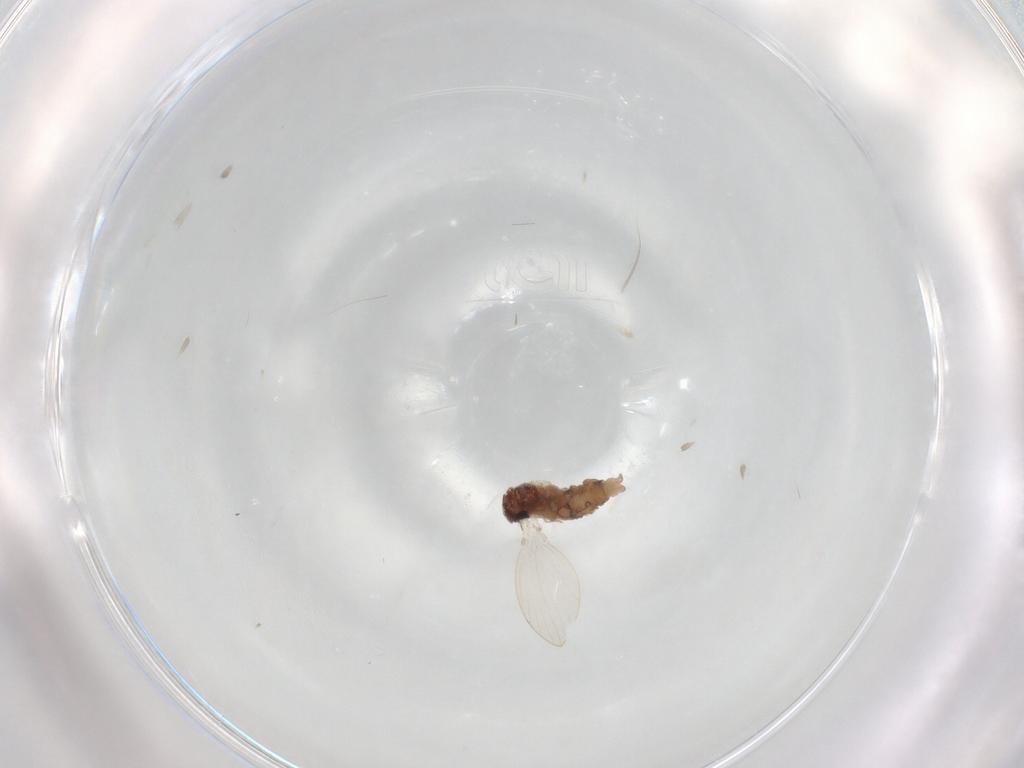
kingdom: Animalia
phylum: Arthropoda
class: Insecta
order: Diptera
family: Psychodidae
